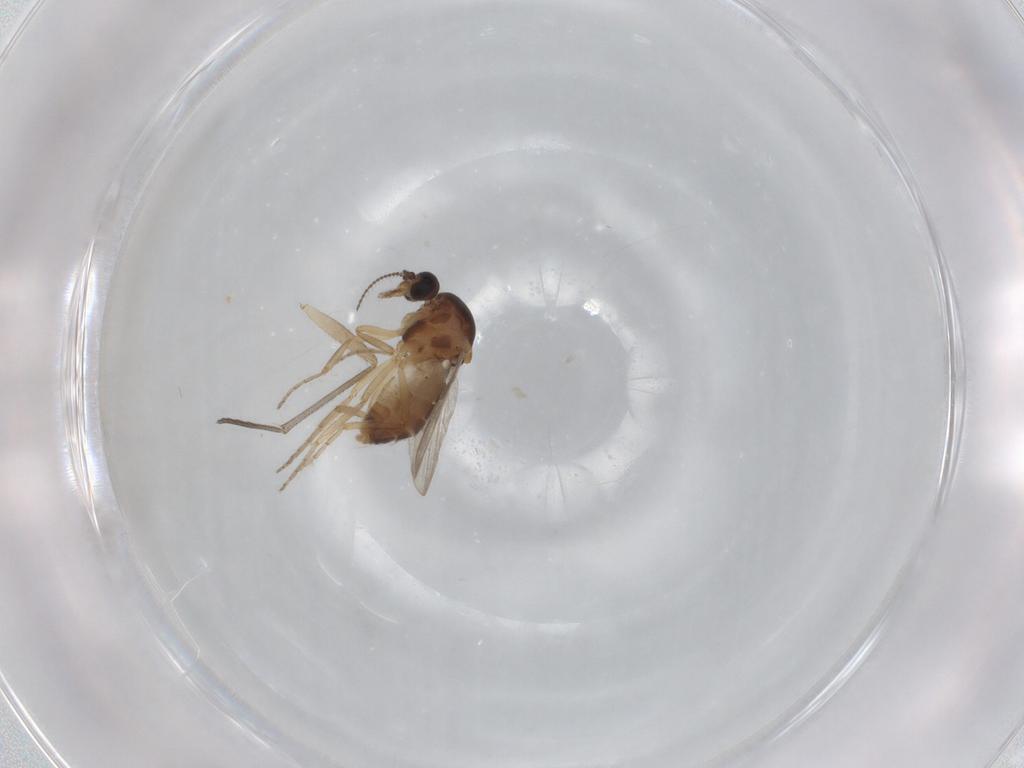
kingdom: Animalia
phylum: Arthropoda
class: Insecta
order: Diptera
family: Ceratopogonidae
